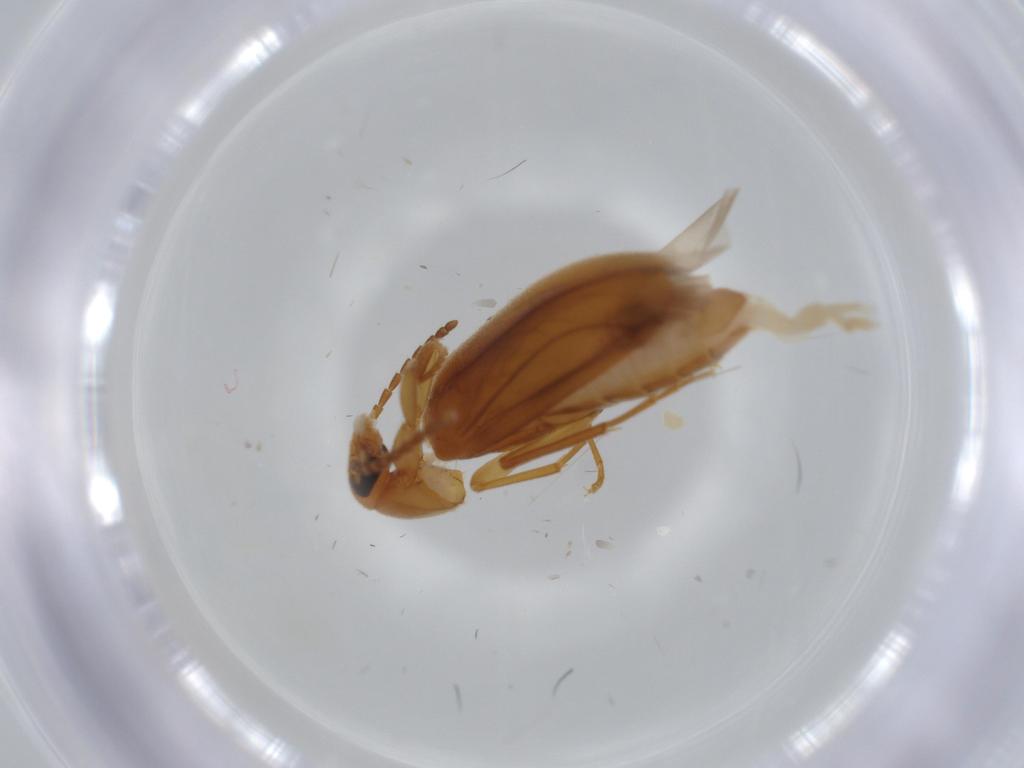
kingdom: Animalia
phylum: Arthropoda
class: Insecta
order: Coleoptera
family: Scraptiidae
